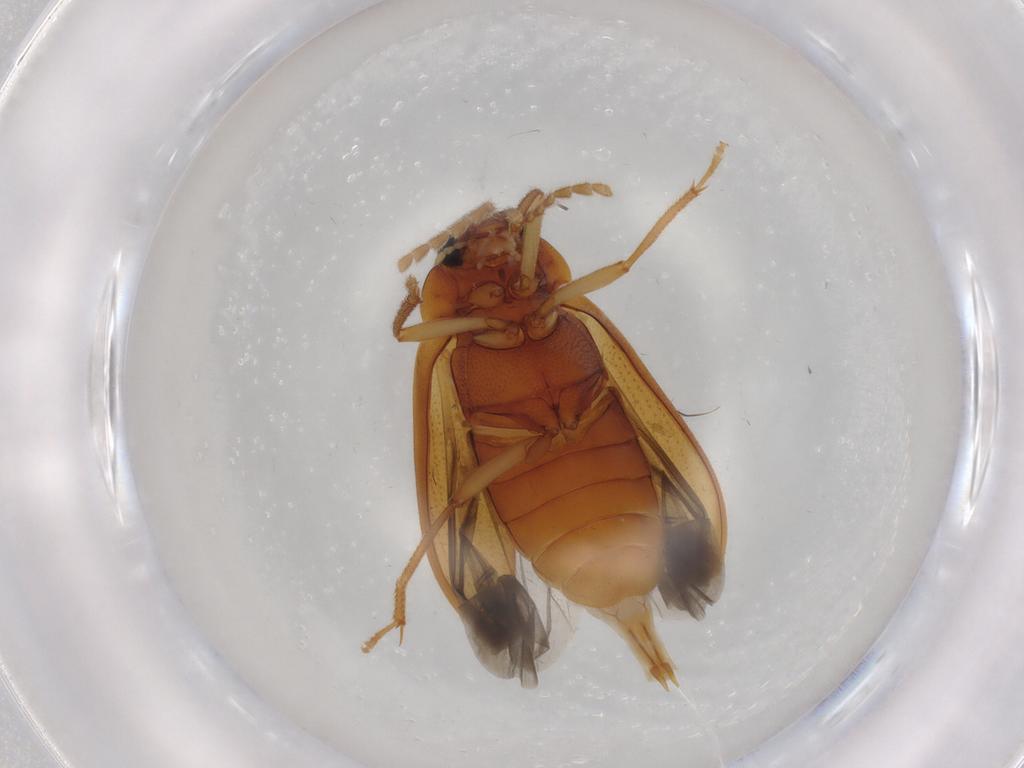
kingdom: Animalia
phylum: Arthropoda
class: Insecta
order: Coleoptera
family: Ptilodactylidae
